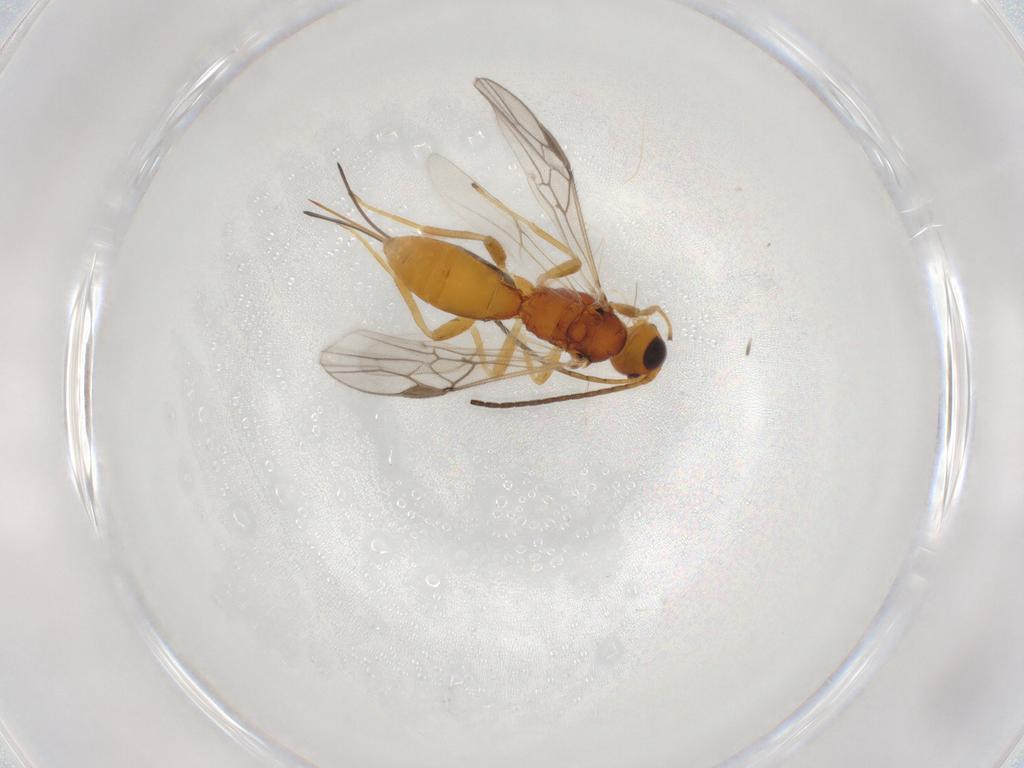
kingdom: Animalia
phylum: Arthropoda
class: Insecta
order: Hymenoptera
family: Braconidae
